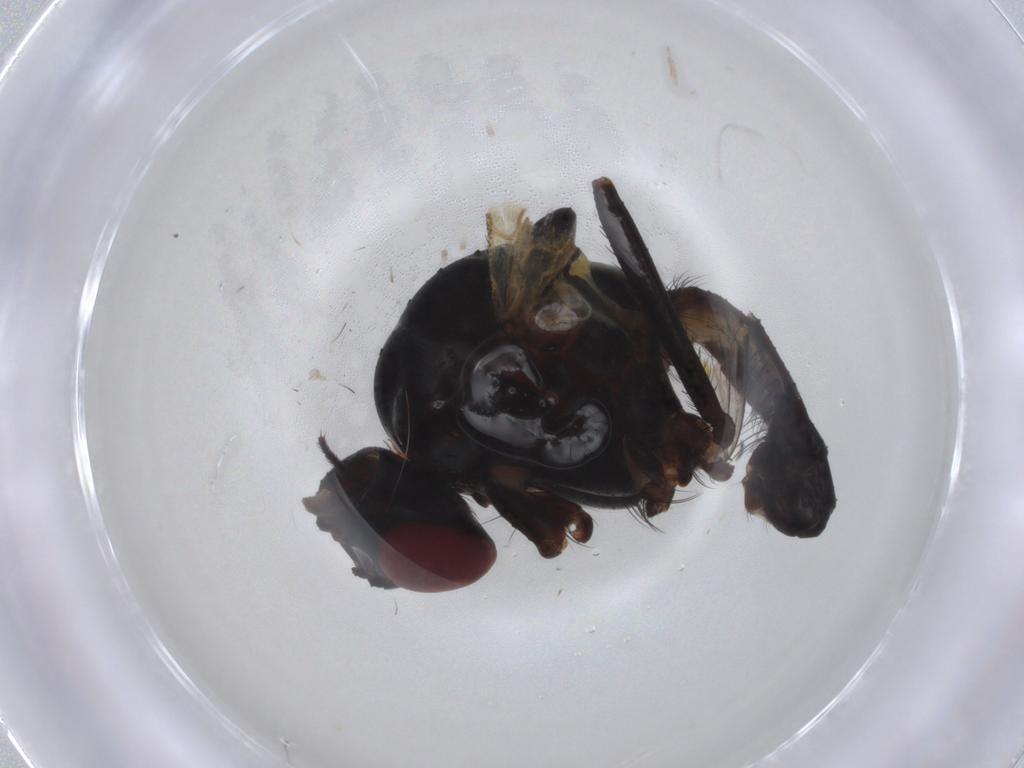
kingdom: Animalia
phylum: Arthropoda
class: Insecta
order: Diptera
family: Anthomyiidae
